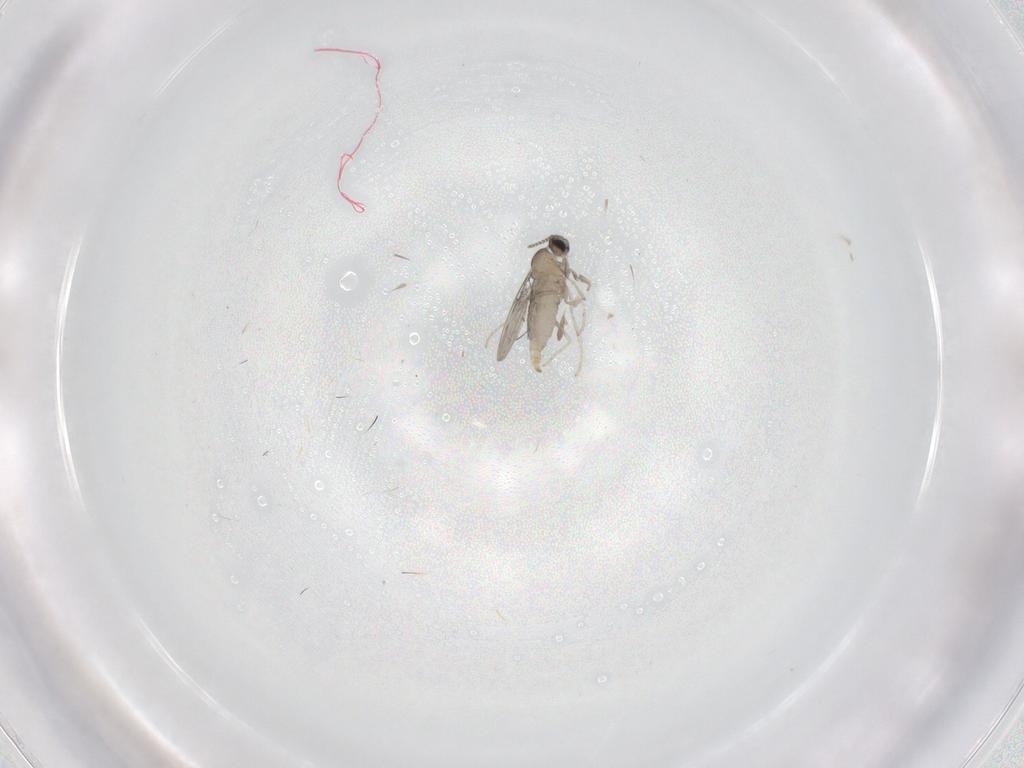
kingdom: Animalia
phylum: Arthropoda
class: Insecta
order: Diptera
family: Cecidomyiidae
